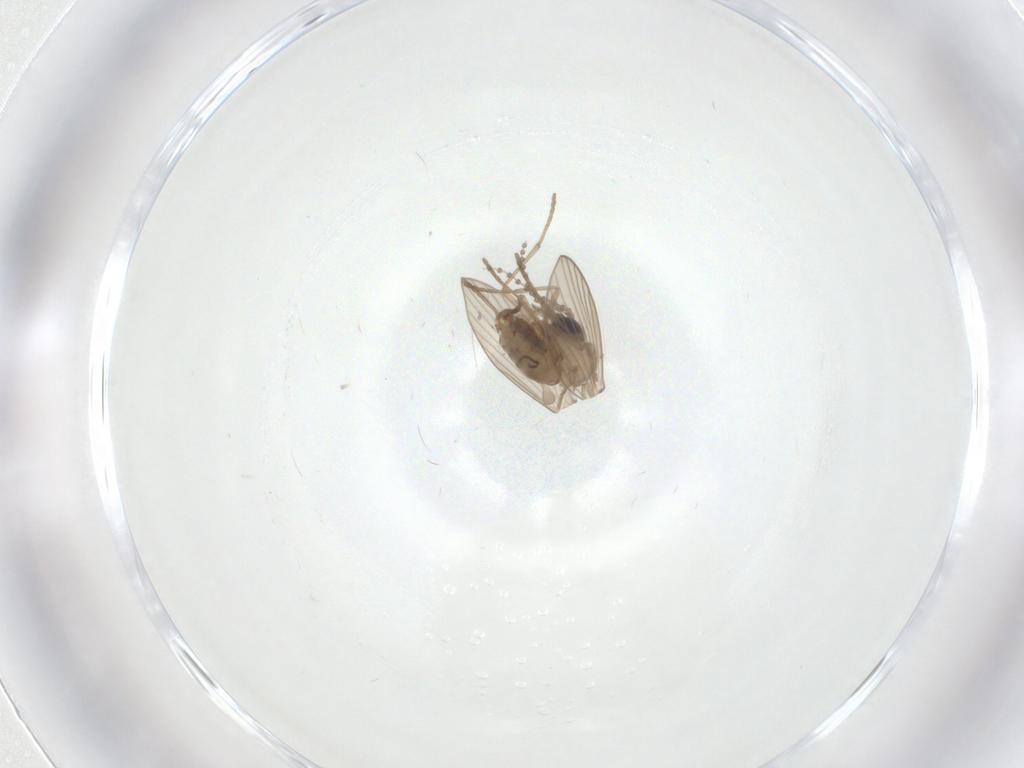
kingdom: Animalia
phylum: Arthropoda
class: Insecta
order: Diptera
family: Psychodidae
